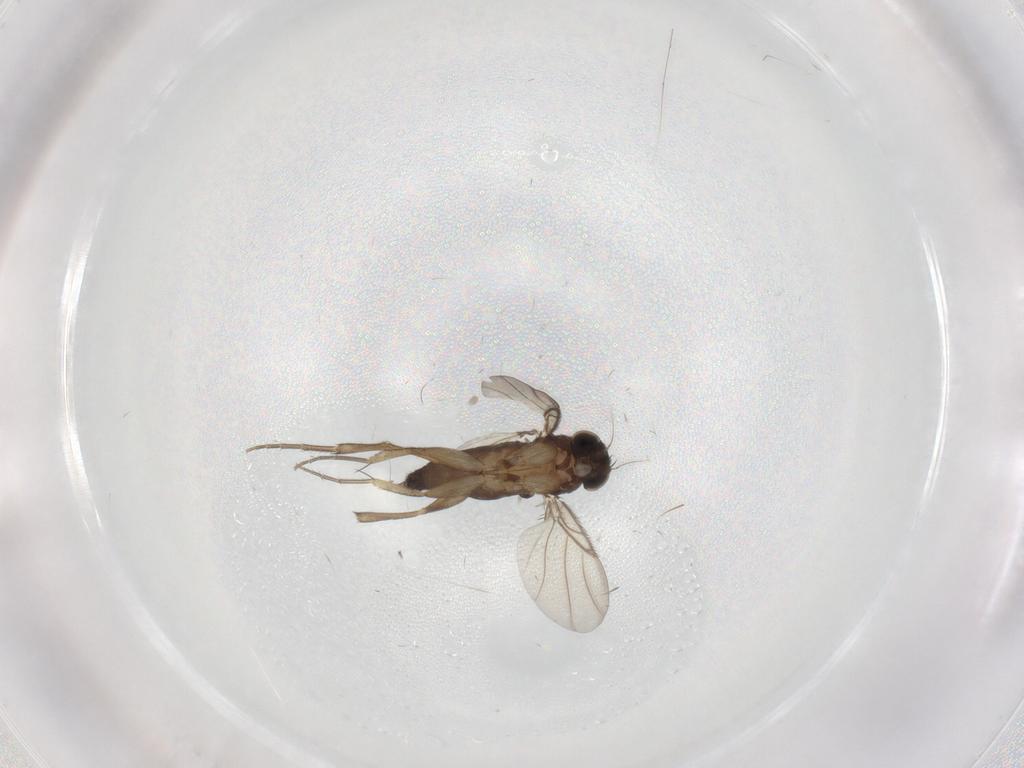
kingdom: Animalia
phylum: Arthropoda
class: Insecta
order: Diptera
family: Phoridae
